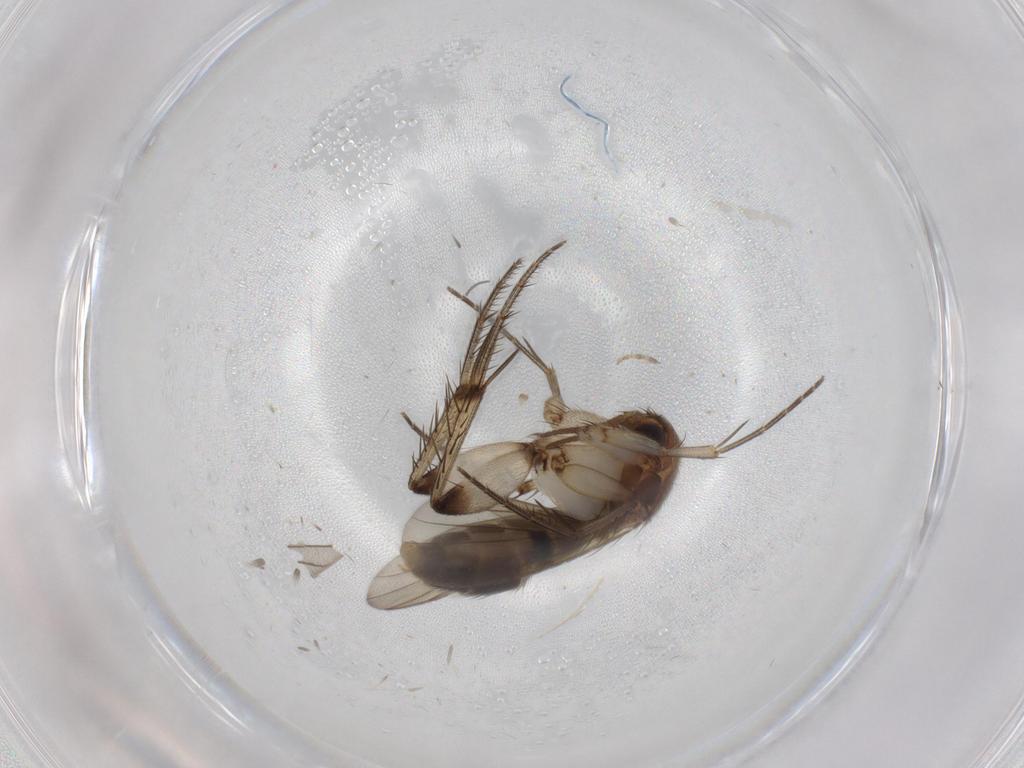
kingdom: Animalia
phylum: Arthropoda
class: Insecta
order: Diptera
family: Mycetophilidae
